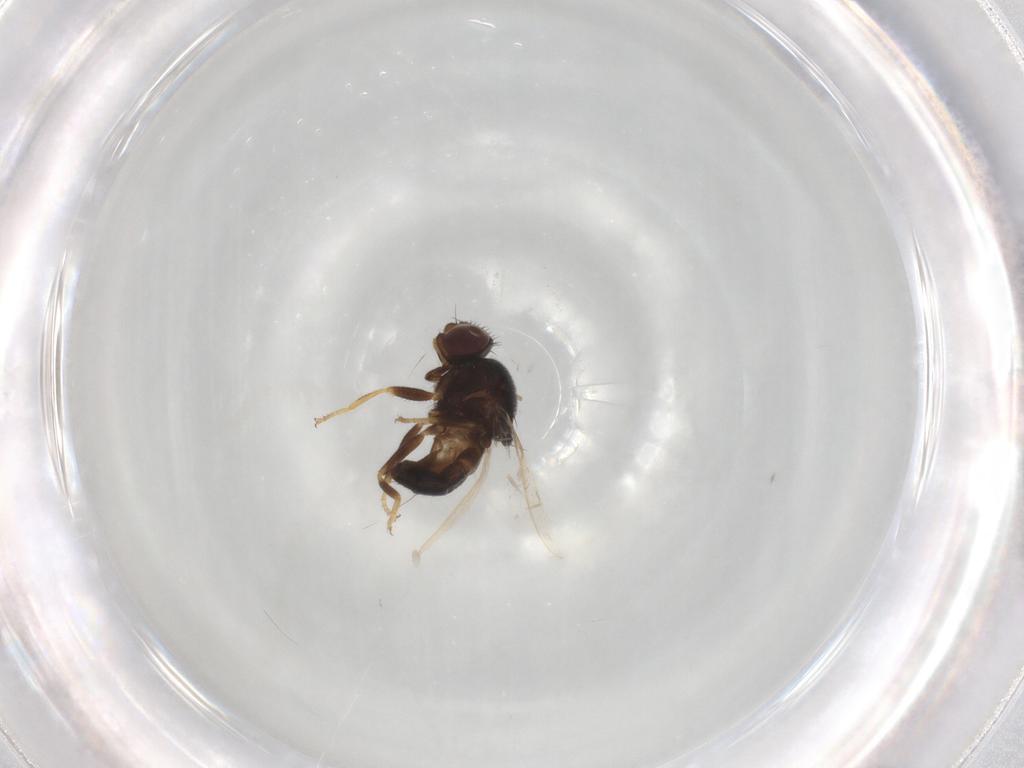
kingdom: Animalia
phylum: Arthropoda
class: Insecta
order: Diptera
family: Chloropidae
